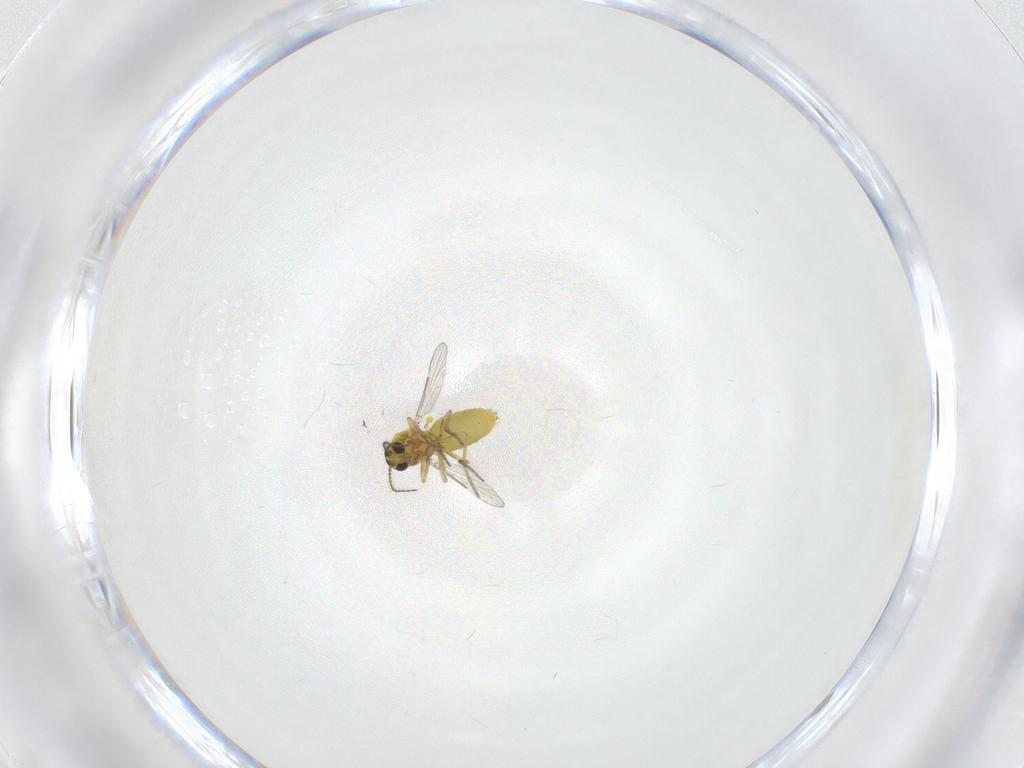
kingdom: Animalia
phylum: Arthropoda
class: Insecta
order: Diptera
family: Ceratopogonidae
